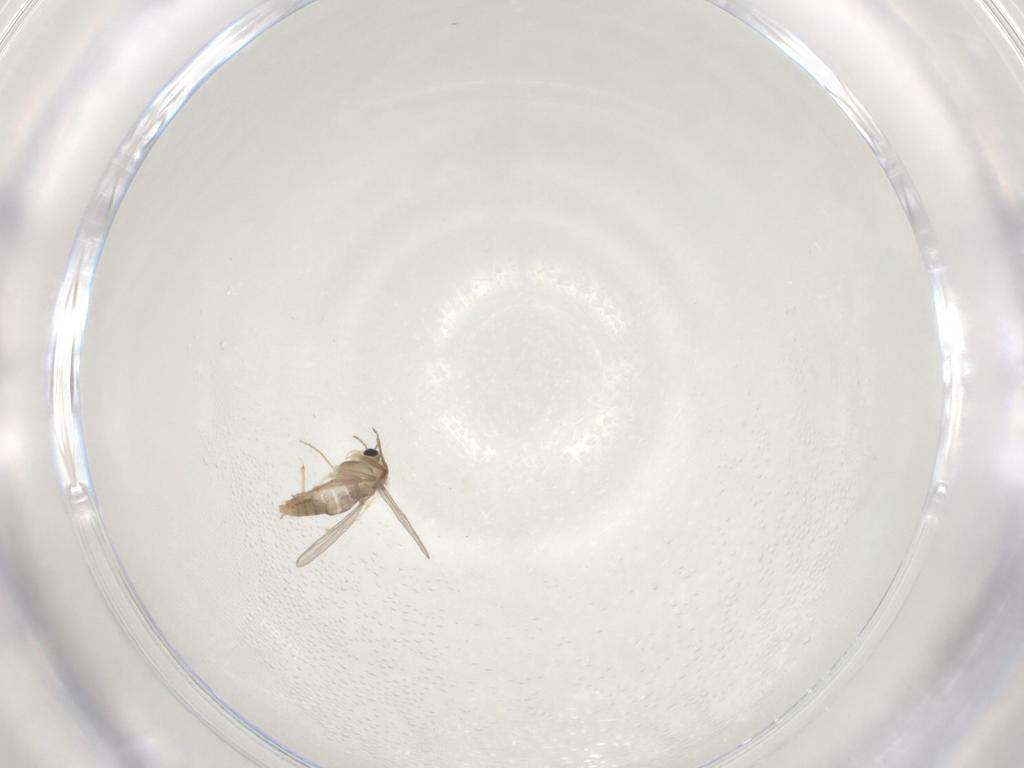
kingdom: Animalia
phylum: Arthropoda
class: Insecta
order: Diptera
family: Chironomidae
